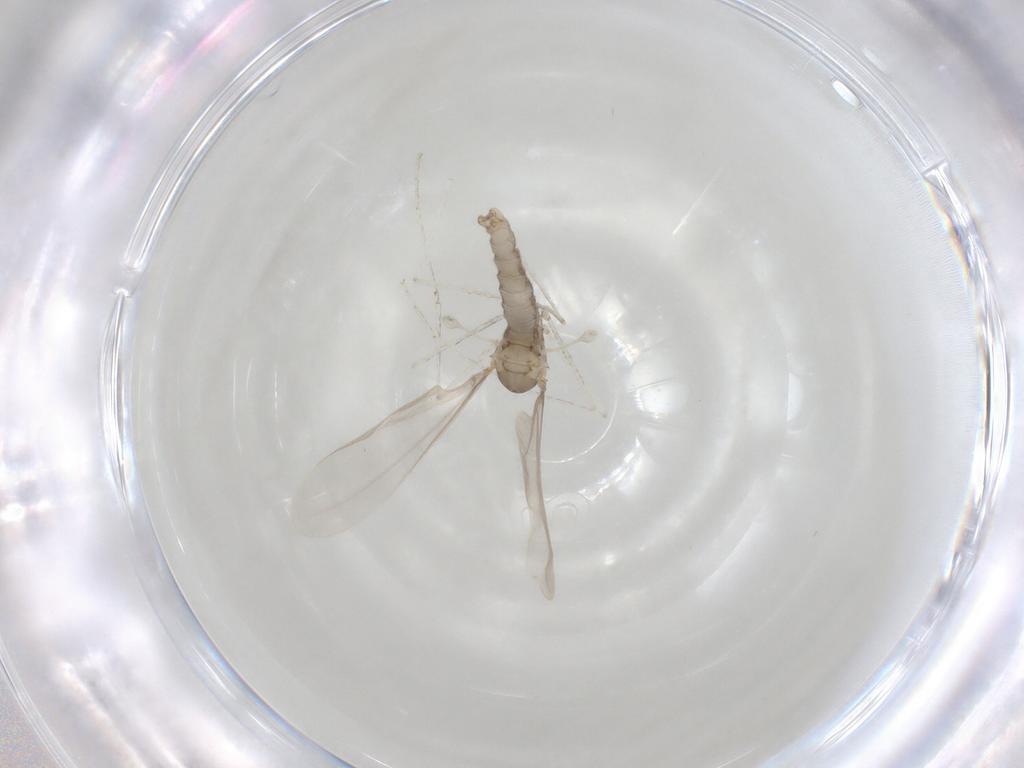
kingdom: Animalia
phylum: Arthropoda
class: Insecta
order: Diptera
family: Cecidomyiidae
